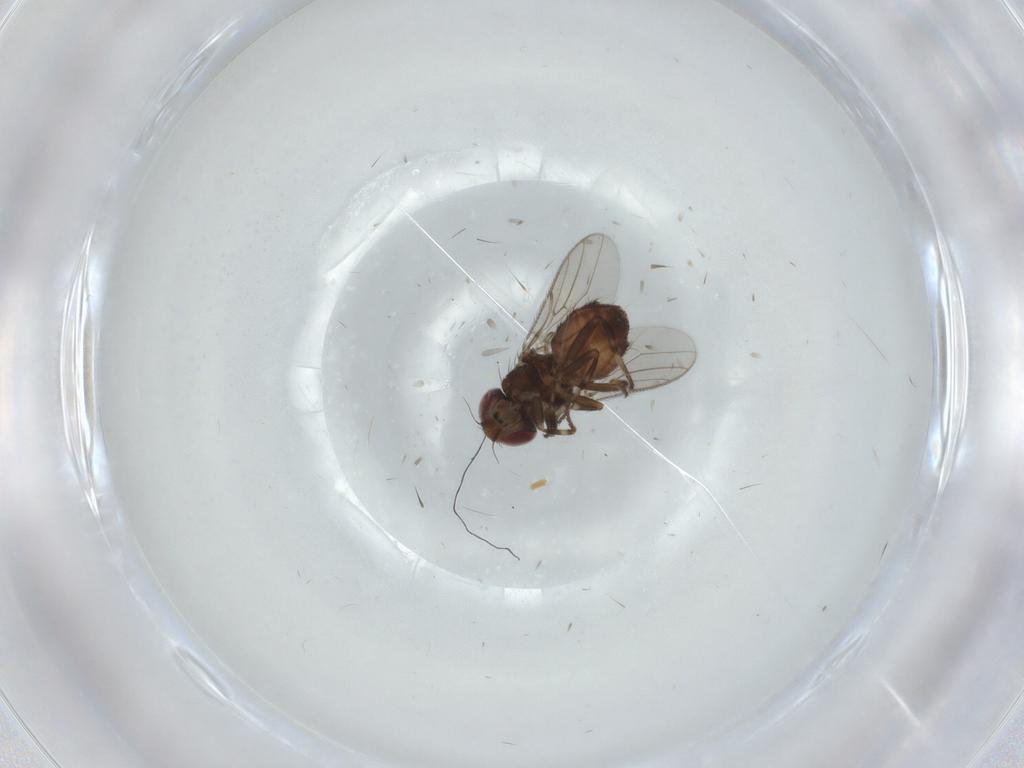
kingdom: Animalia
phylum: Arthropoda
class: Insecta
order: Diptera
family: Chloropidae
